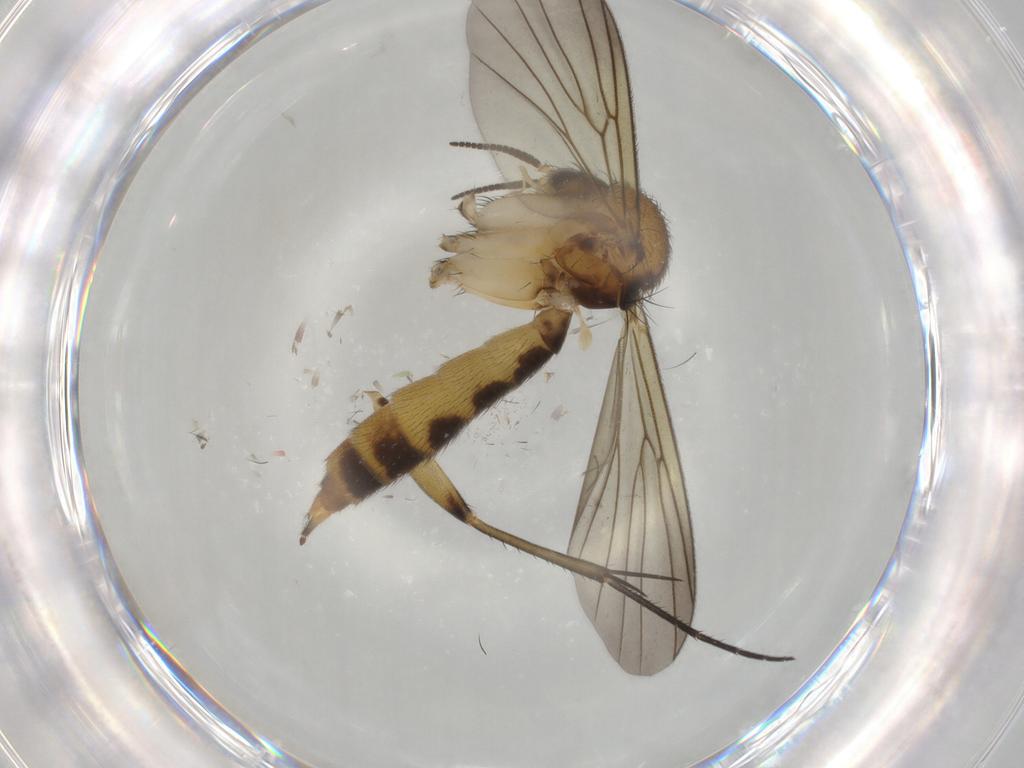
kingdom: Animalia
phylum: Arthropoda
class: Insecta
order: Diptera
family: Mycetophilidae
